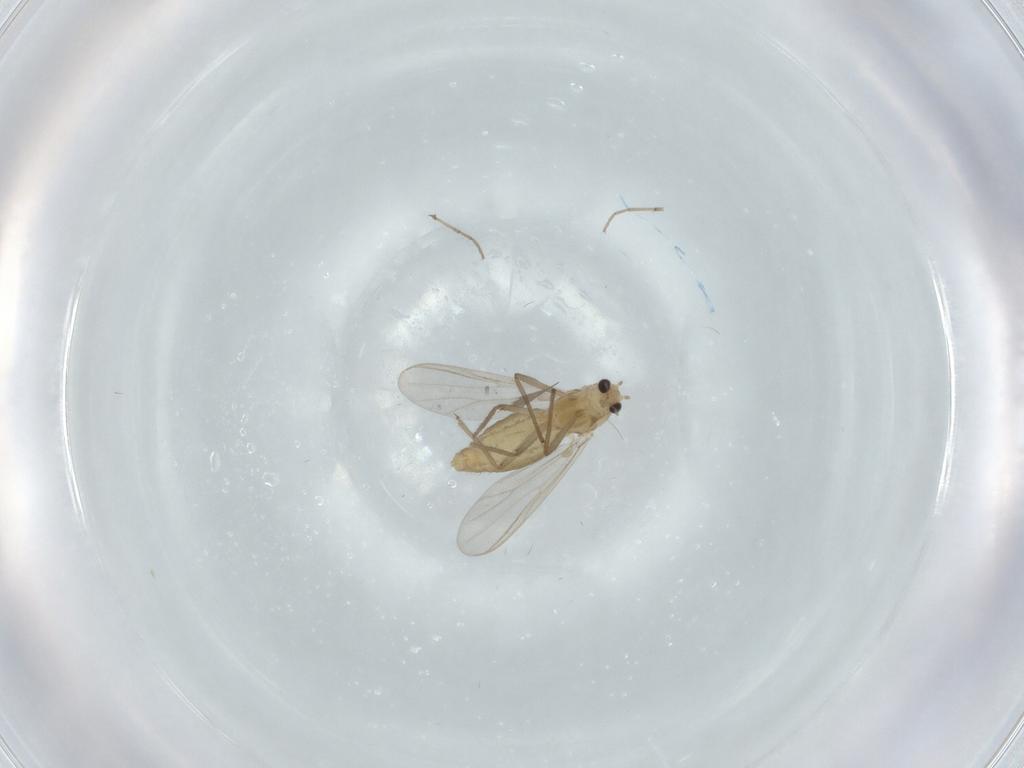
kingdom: Animalia
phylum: Arthropoda
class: Insecta
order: Diptera
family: Chironomidae
